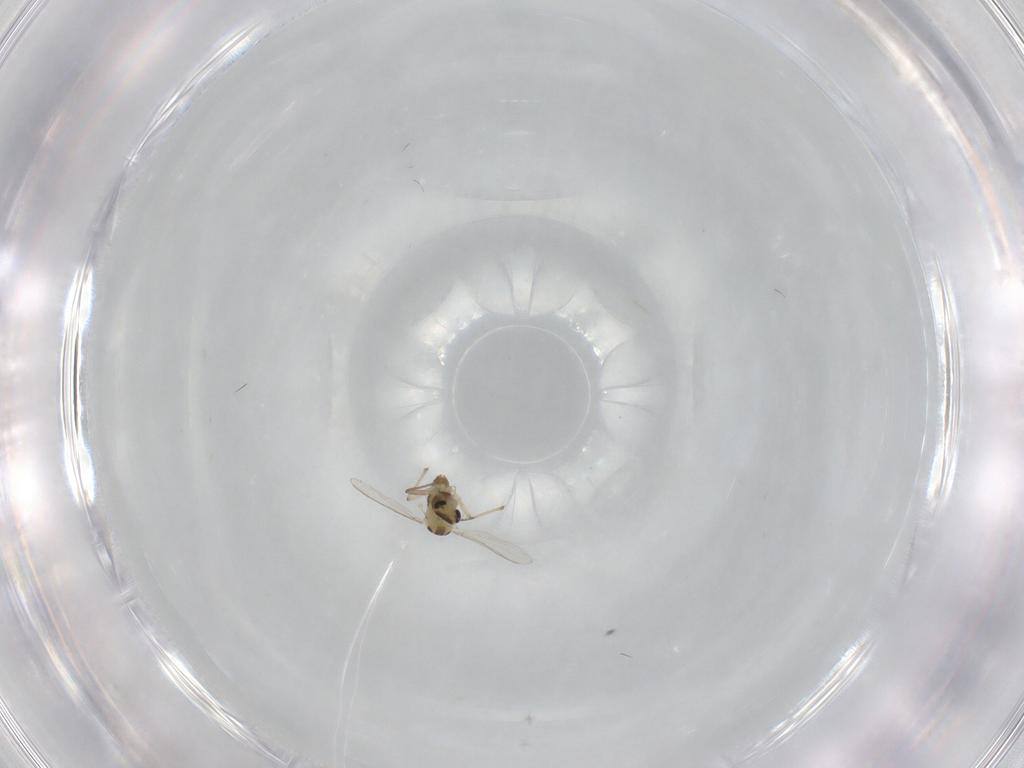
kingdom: Animalia
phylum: Arthropoda
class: Insecta
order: Diptera
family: Chironomidae
